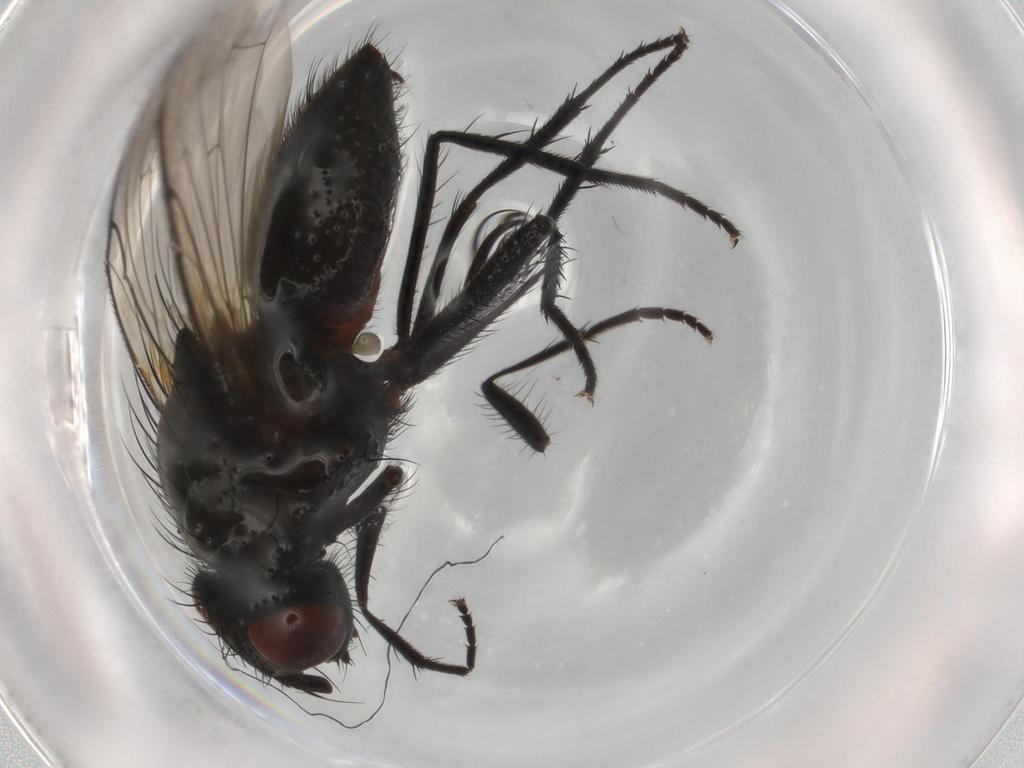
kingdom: Animalia
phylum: Arthropoda
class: Insecta
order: Diptera
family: Anthomyiidae
